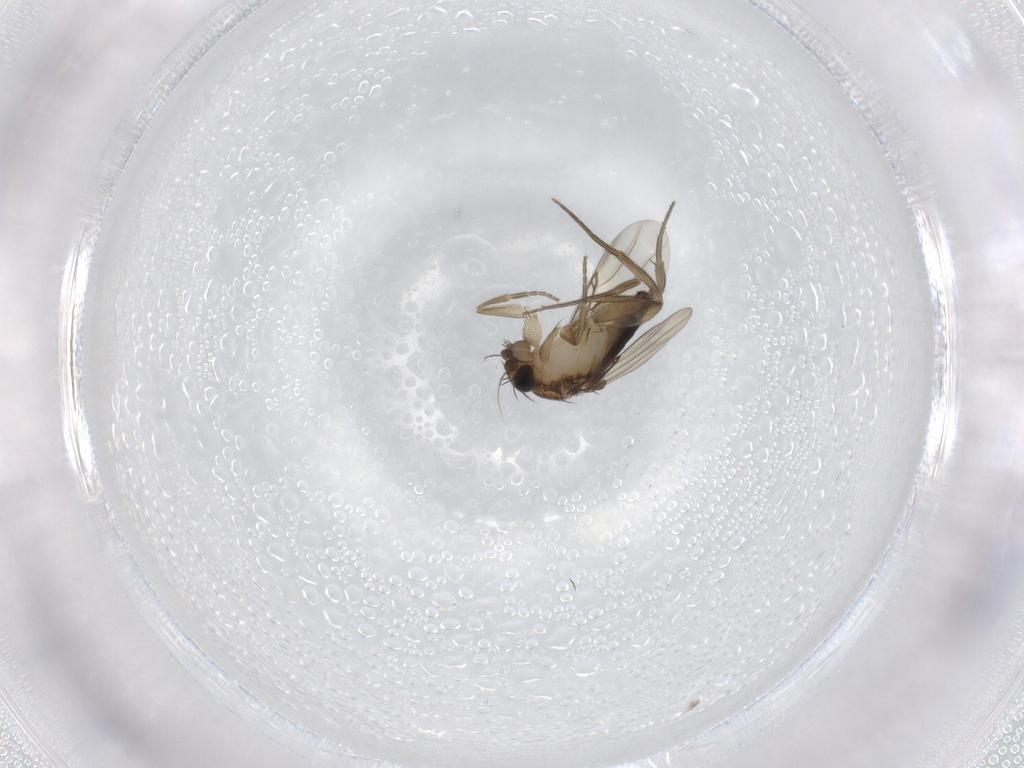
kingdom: Animalia
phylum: Arthropoda
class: Insecta
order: Diptera
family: Phoridae
